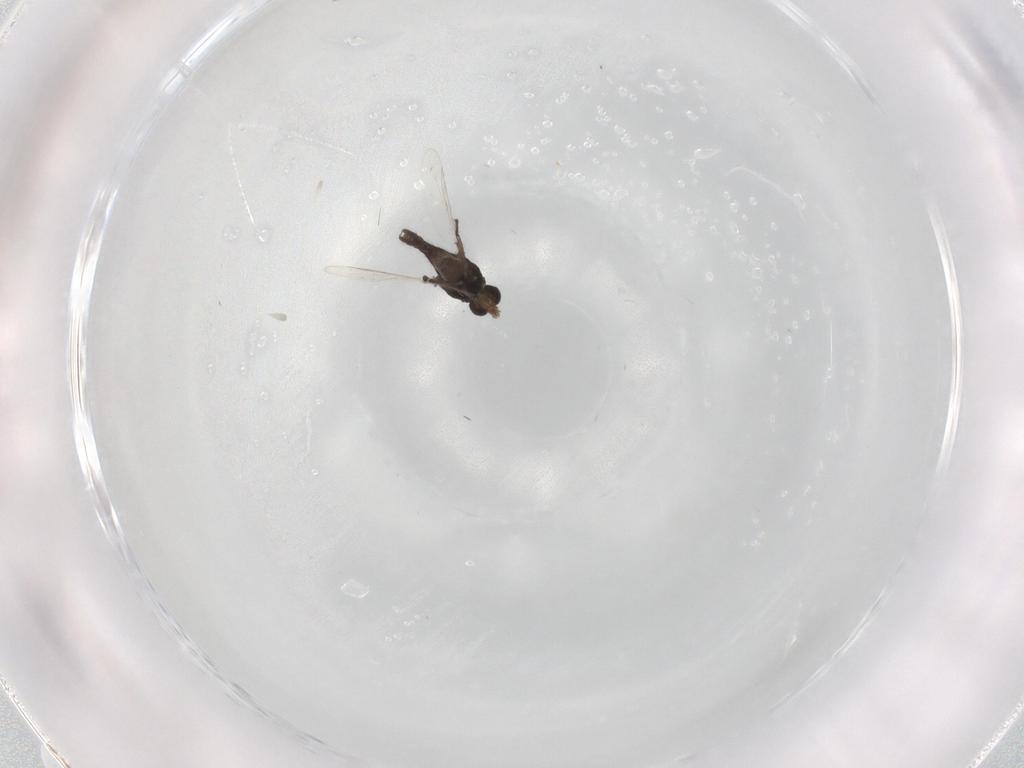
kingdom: Animalia
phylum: Arthropoda
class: Insecta
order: Diptera
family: Chironomidae
